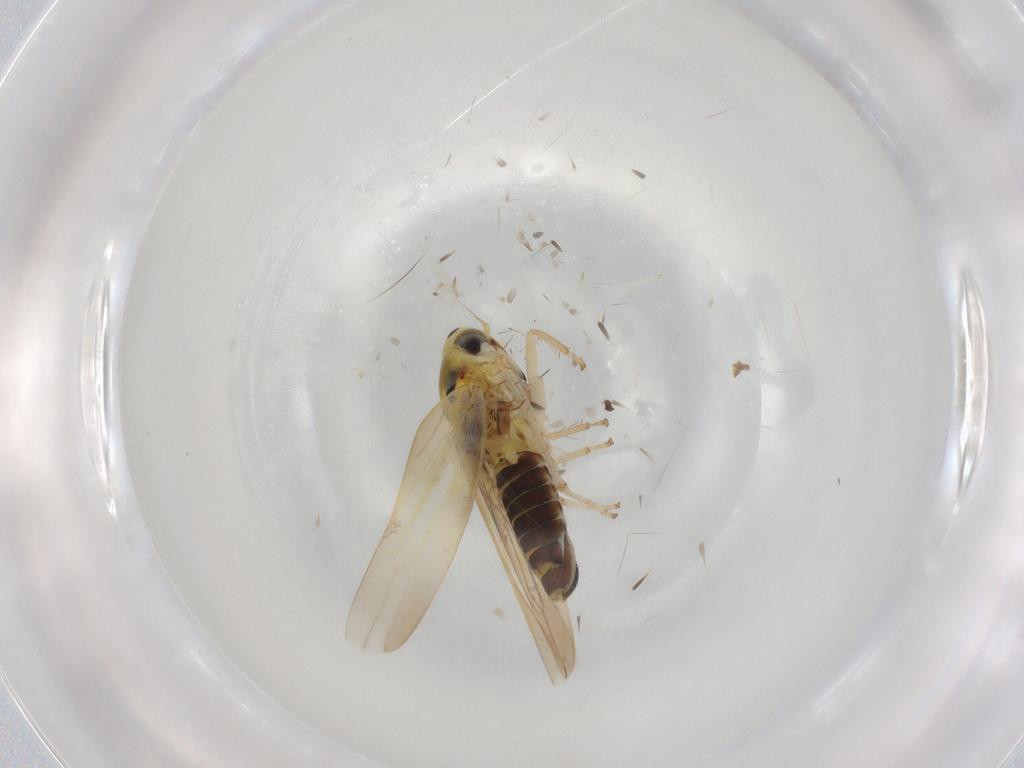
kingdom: Animalia
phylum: Arthropoda
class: Insecta
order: Hemiptera
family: Cicadellidae
